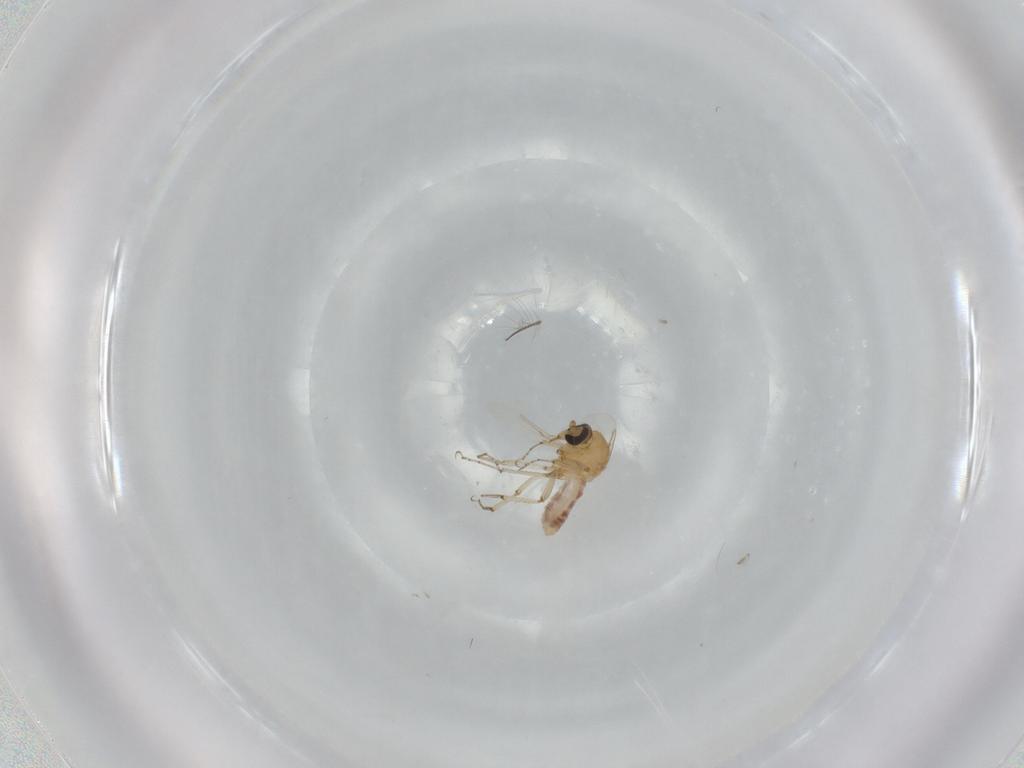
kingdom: Animalia
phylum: Arthropoda
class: Insecta
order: Diptera
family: Ceratopogonidae
